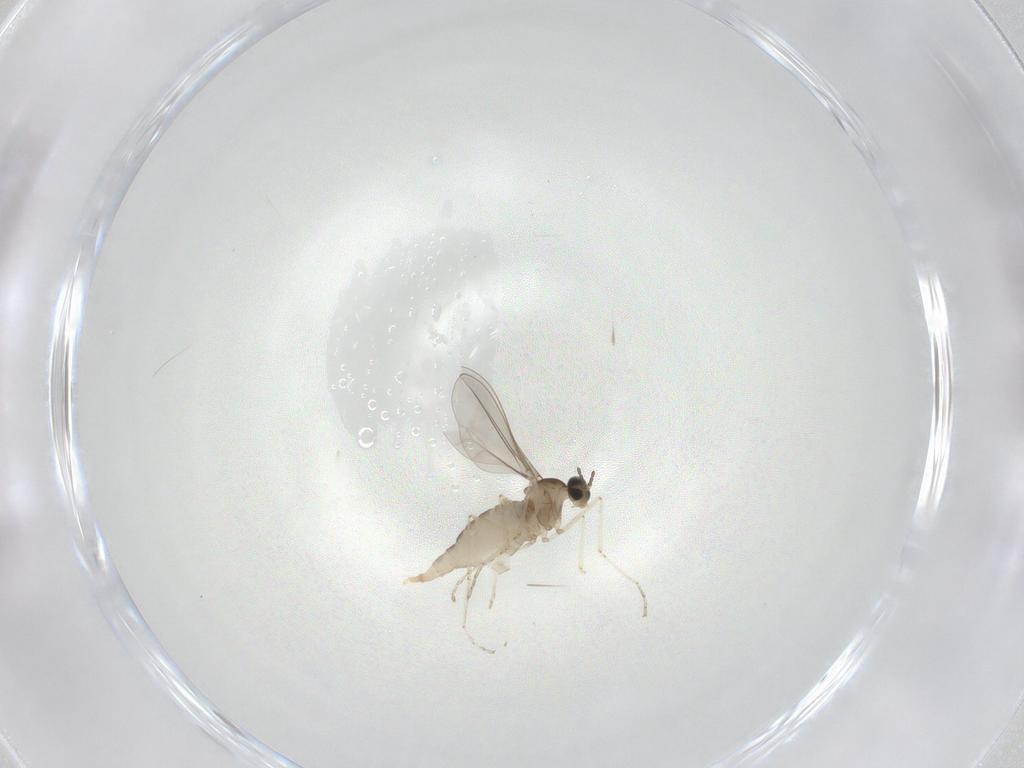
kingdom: Animalia
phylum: Arthropoda
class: Insecta
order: Diptera
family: Cecidomyiidae
